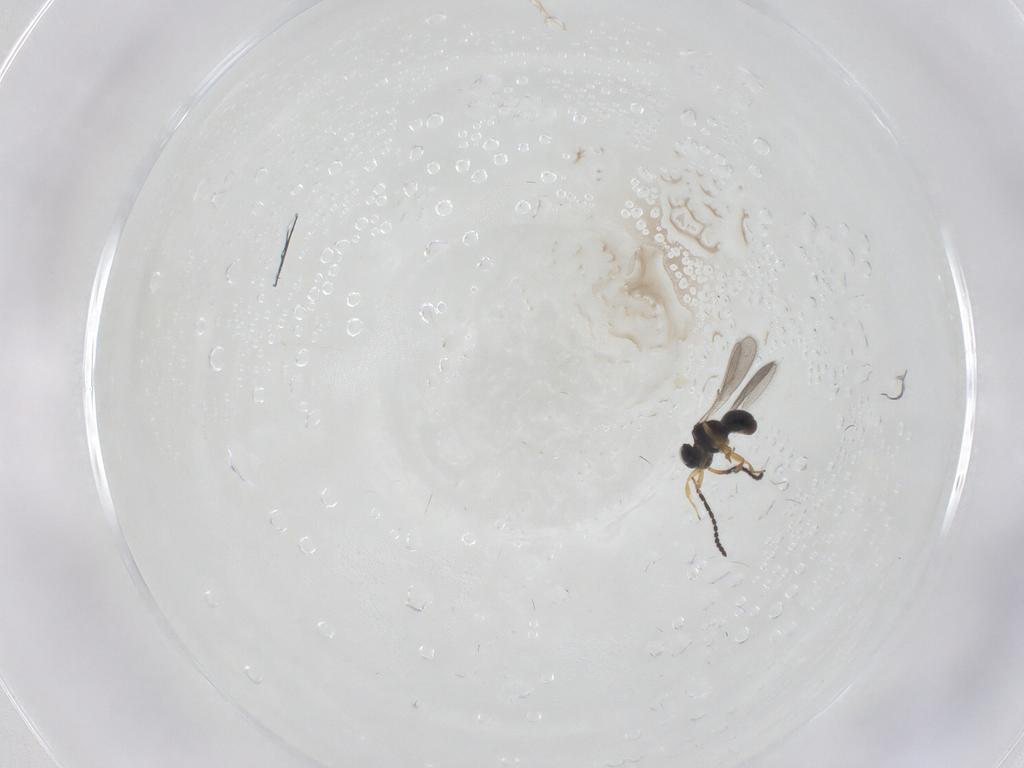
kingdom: Animalia
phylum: Arthropoda
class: Insecta
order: Hymenoptera
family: Scelionidae
